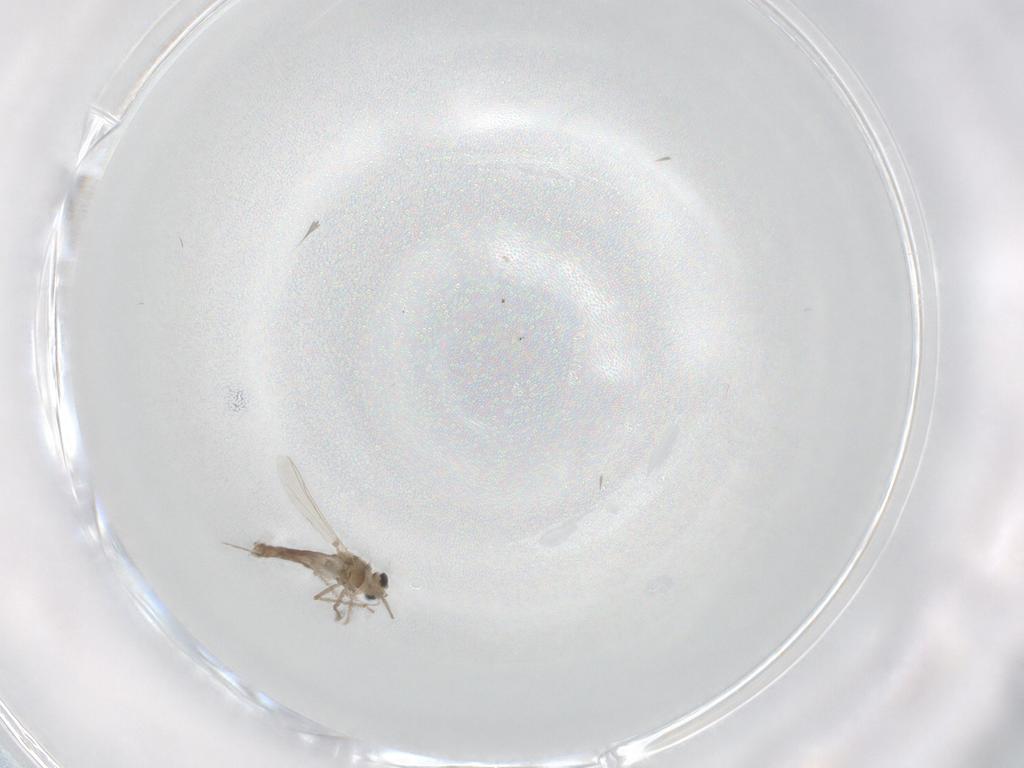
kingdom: Animalia
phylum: Arthropoda
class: Insecta
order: Diptera
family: Chironomidae
